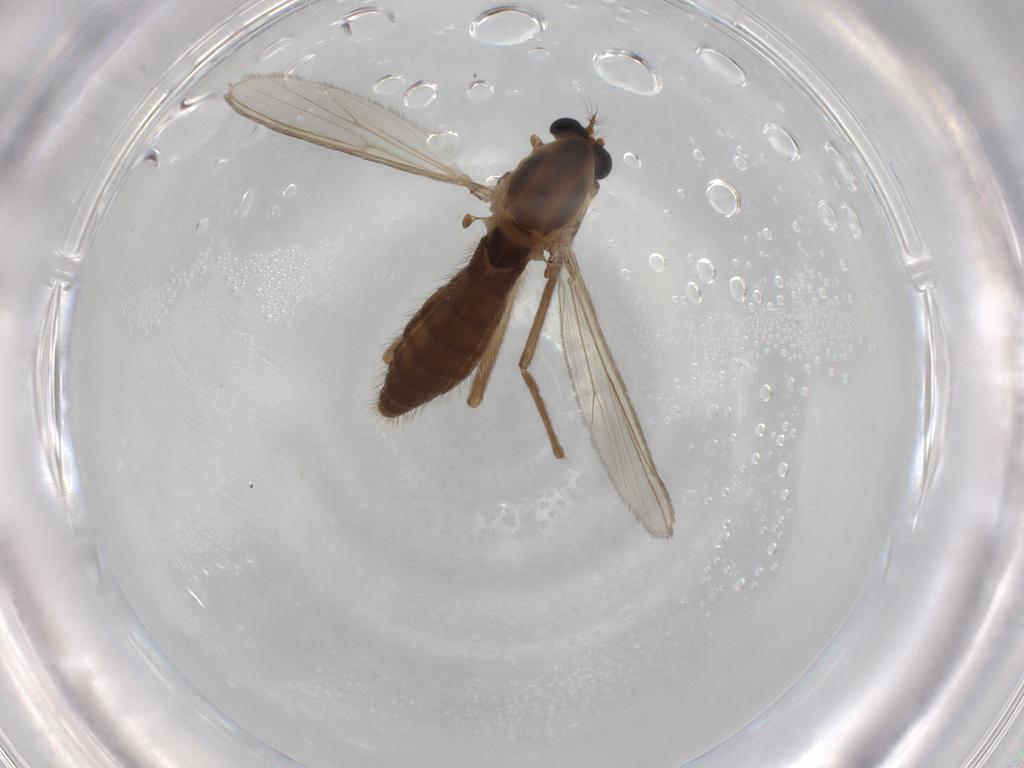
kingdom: Animalia
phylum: Arthropoda
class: Insecta
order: Diptera
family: Chironomidae
